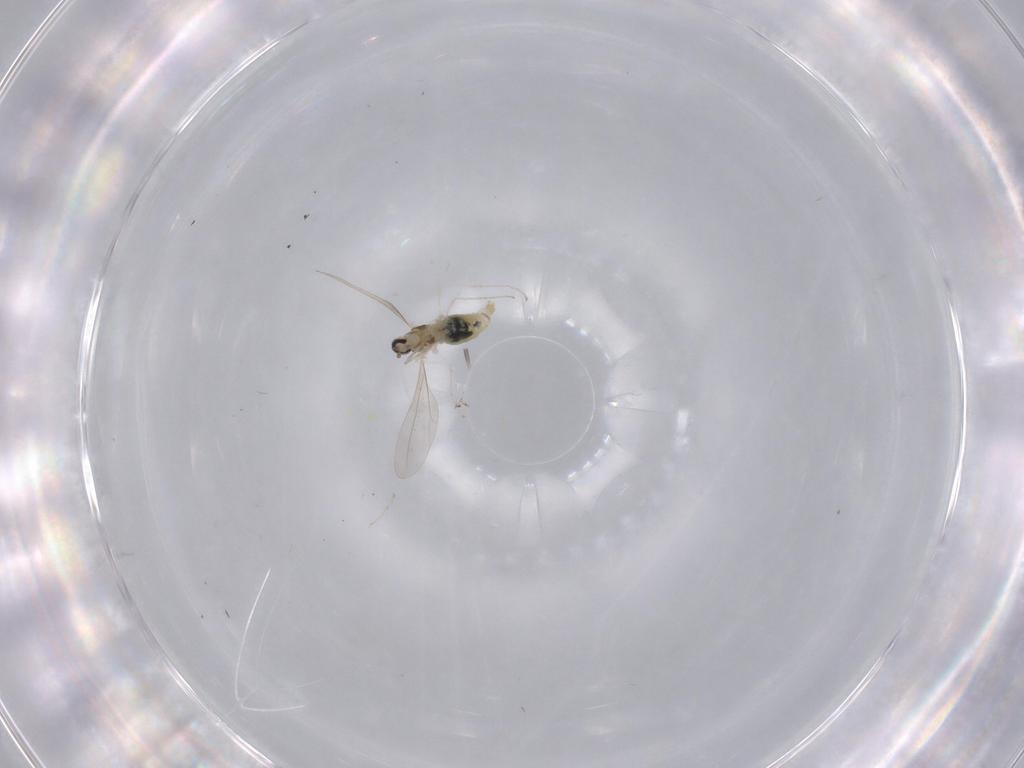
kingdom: Animalia
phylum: Arthropoda
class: Insecta
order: Diptera
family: Cecidomyiidae
